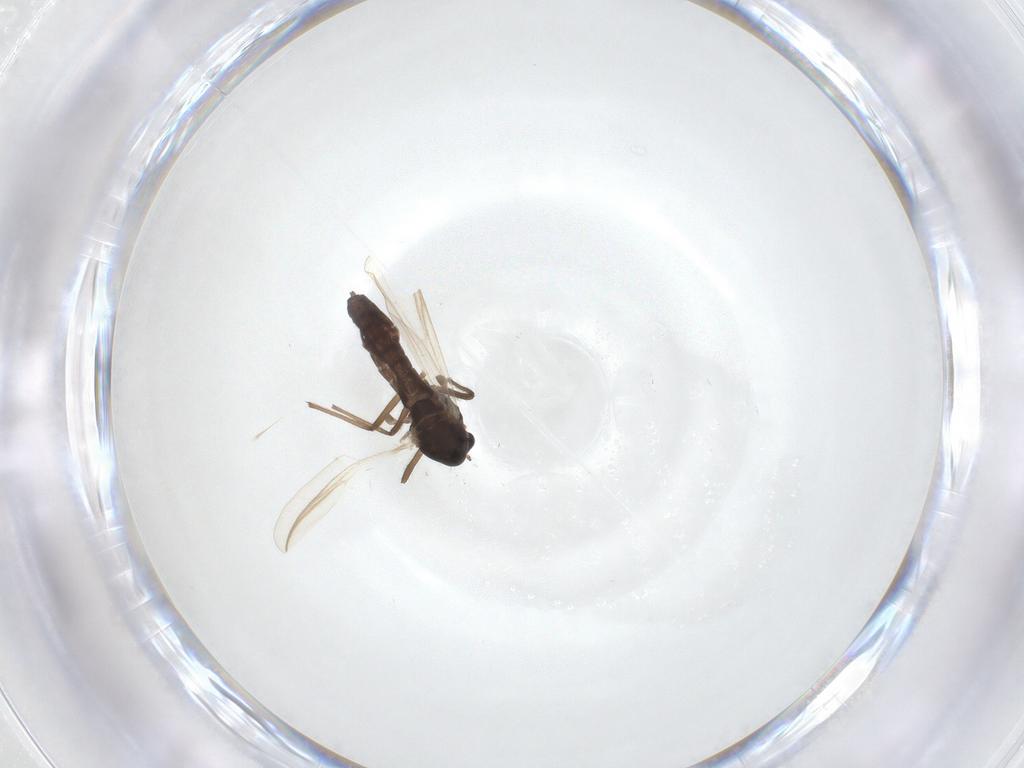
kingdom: Animalia
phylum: Arthropoda
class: Insecta
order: Diptera
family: Chironomidae
